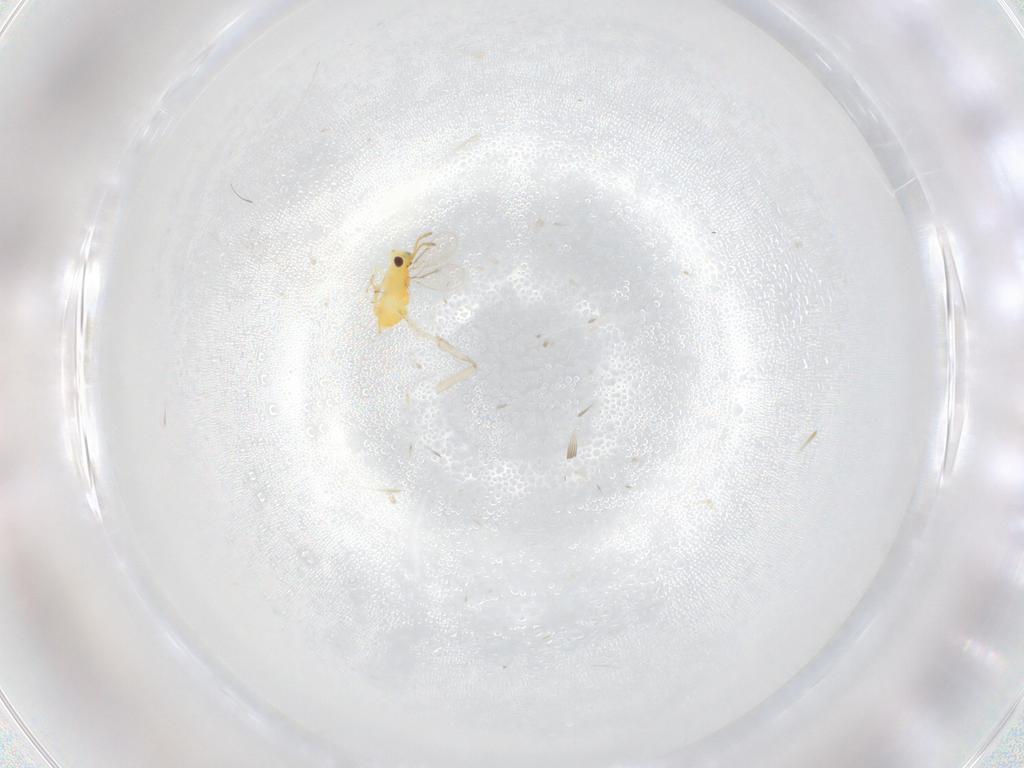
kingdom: Animalia
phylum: Arthropoda
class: Insecta
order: Hymenoptera
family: Aphelinidae
